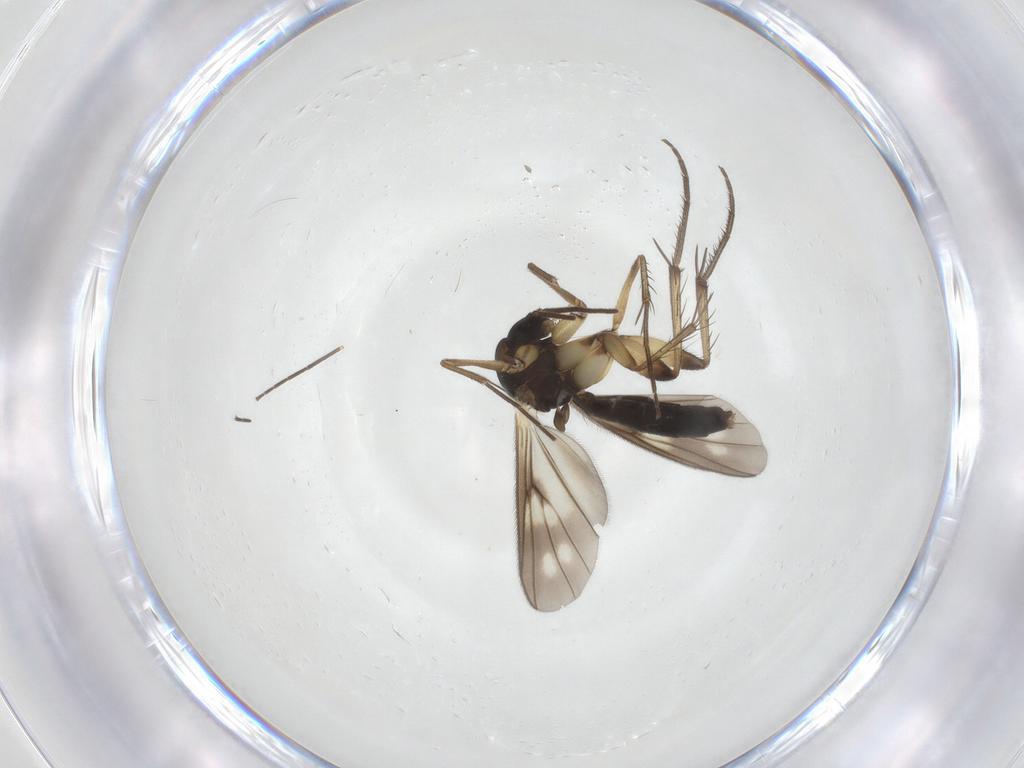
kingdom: Animalia
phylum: Arthropoda
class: Insecta
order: Diptera
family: Mycetophilidae
